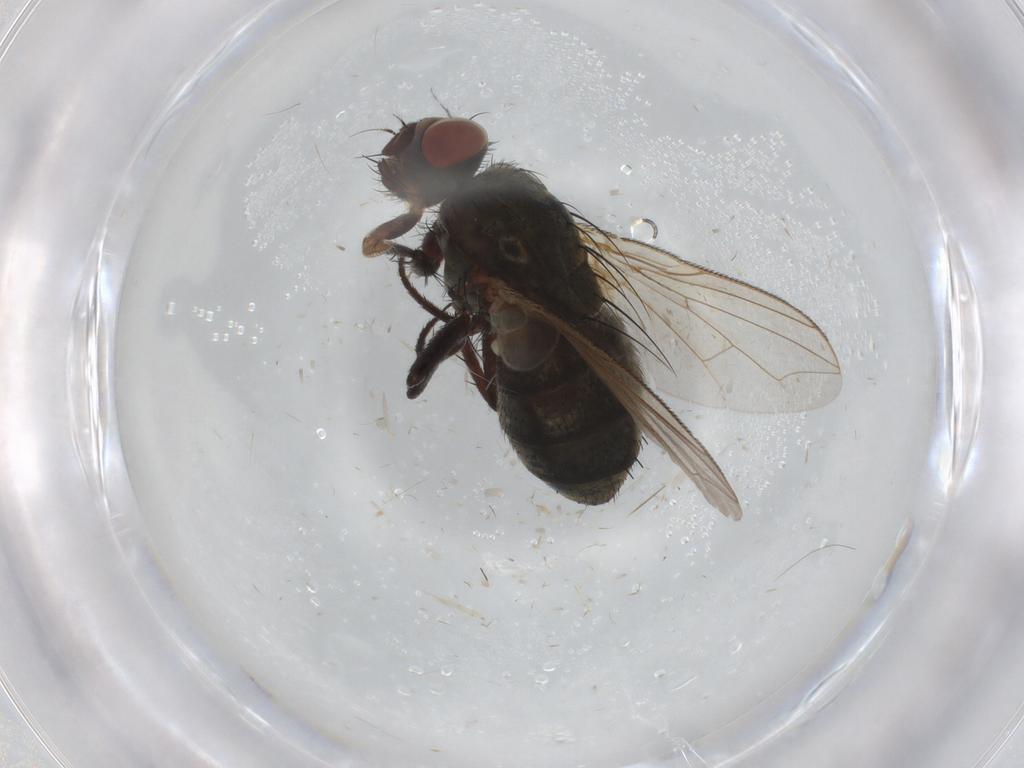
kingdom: Animalia
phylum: Arthropoda
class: Insecta
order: Diptera
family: Sarcophagidae
